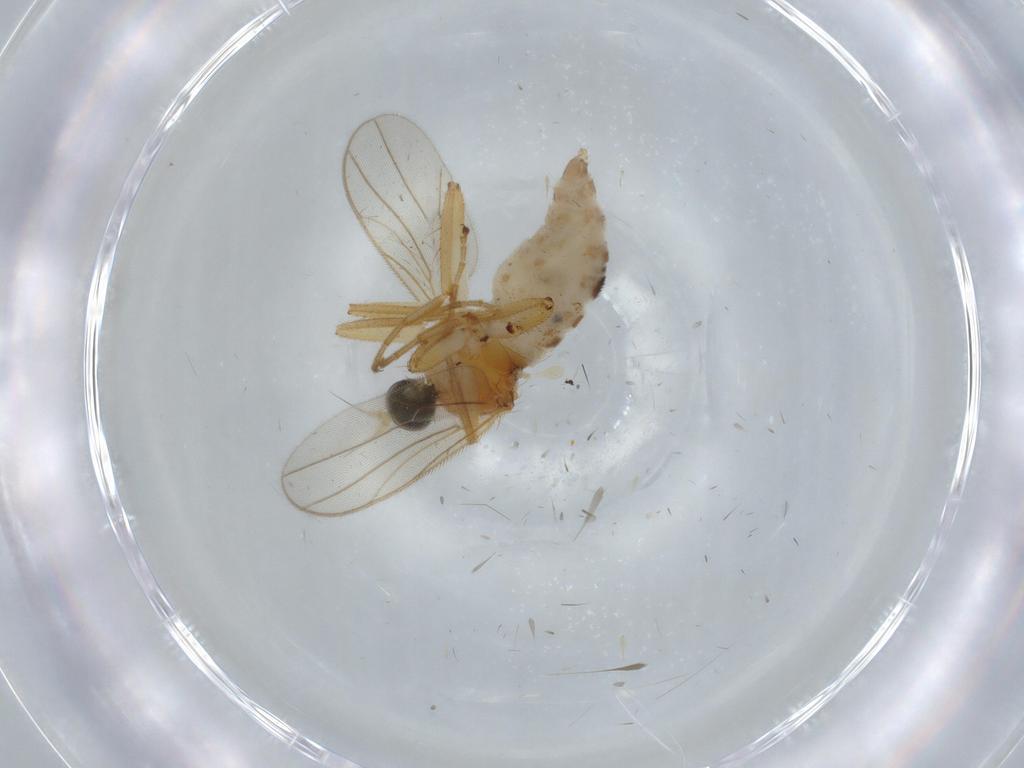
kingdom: Animalia
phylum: Arthropoda
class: Insecta
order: Diptera
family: Hybotidae
